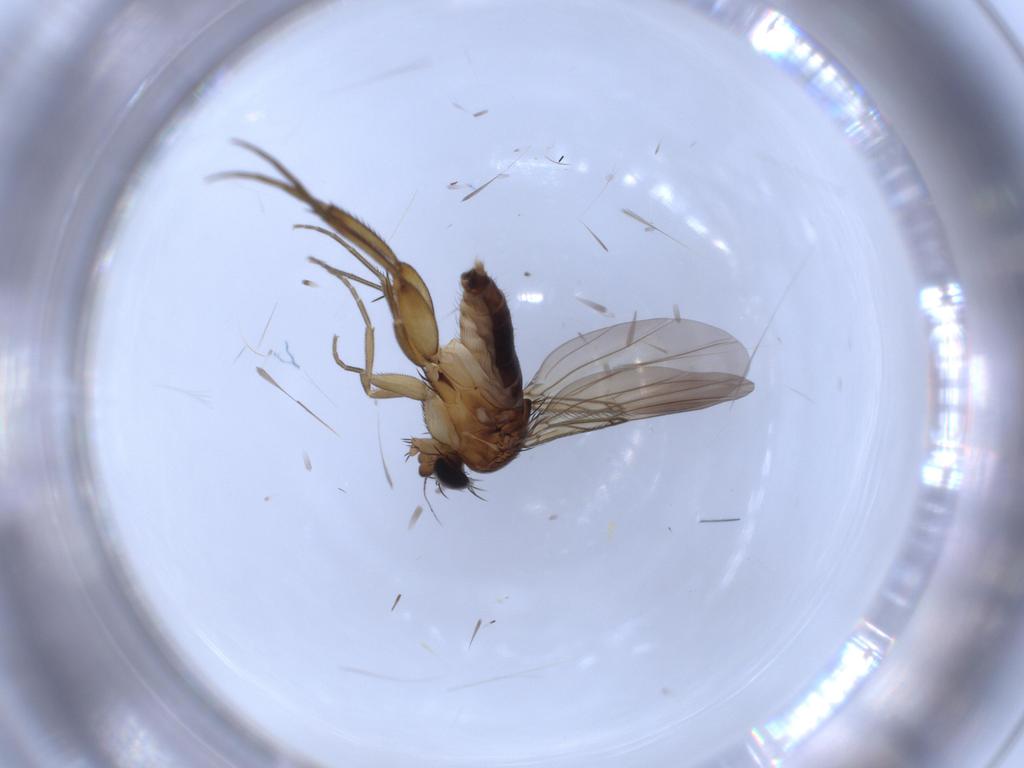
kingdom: Animalia
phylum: Arthropoda
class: Insecta
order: Diptera
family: Phoridae
